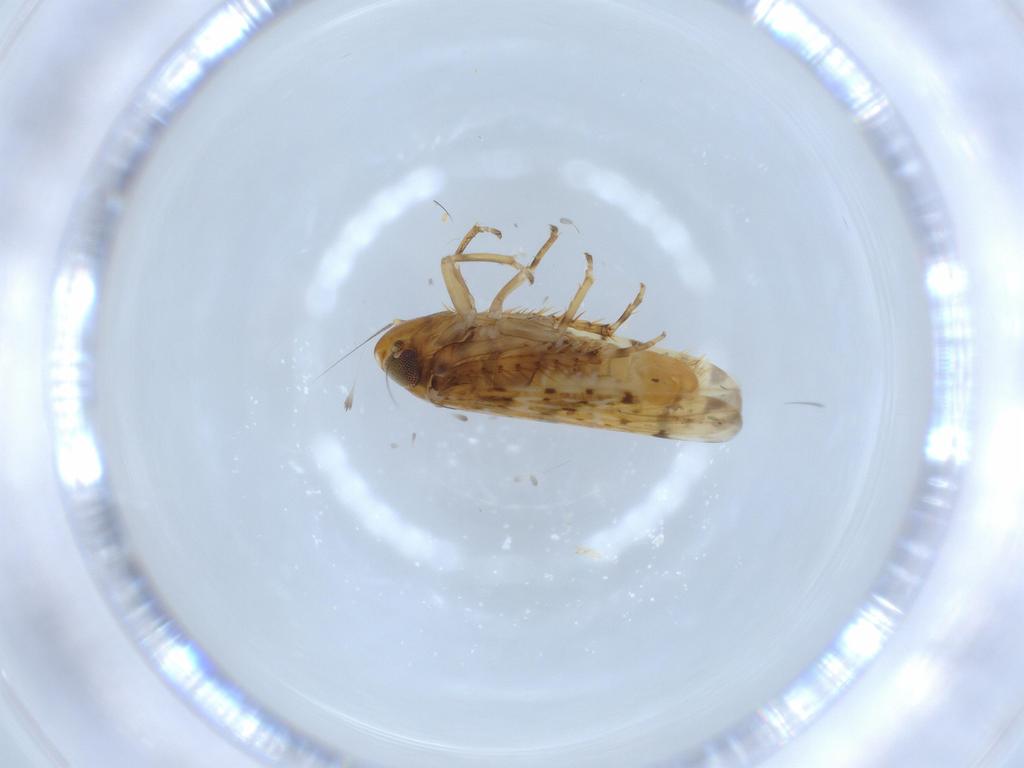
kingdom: Animalia
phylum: Arthropoda
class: Insecta
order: Hemiptera
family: Cicadellidae
